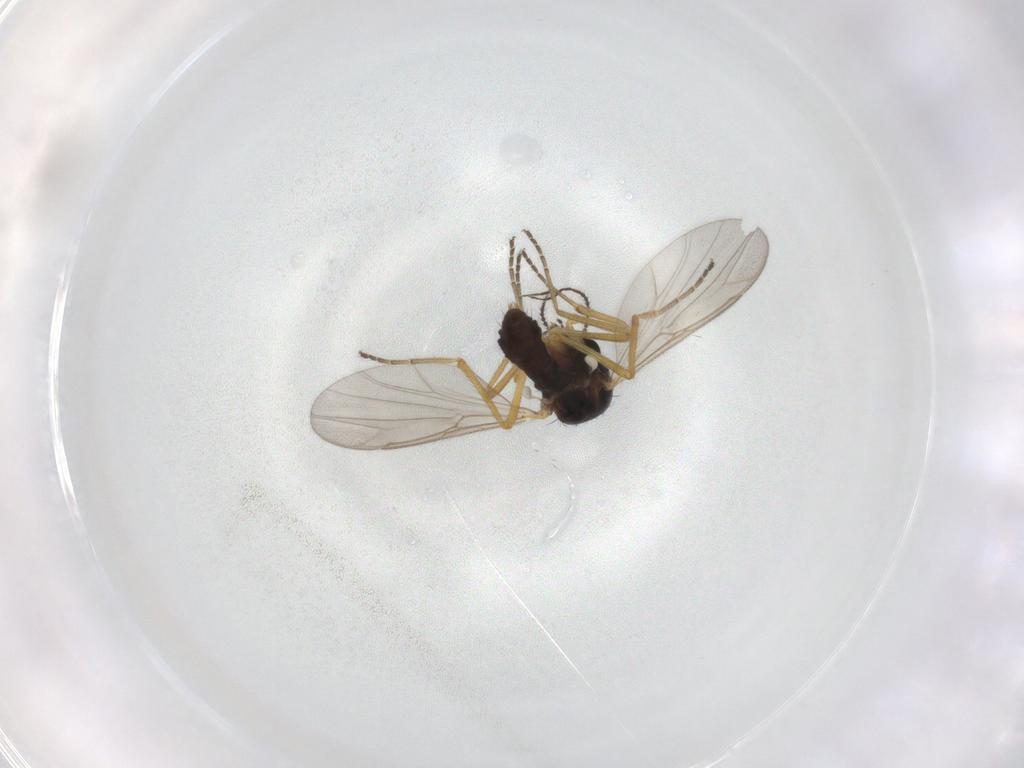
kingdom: Animalia
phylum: Arthropoda
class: Insecta
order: Diptera
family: Ceratopogonidae
